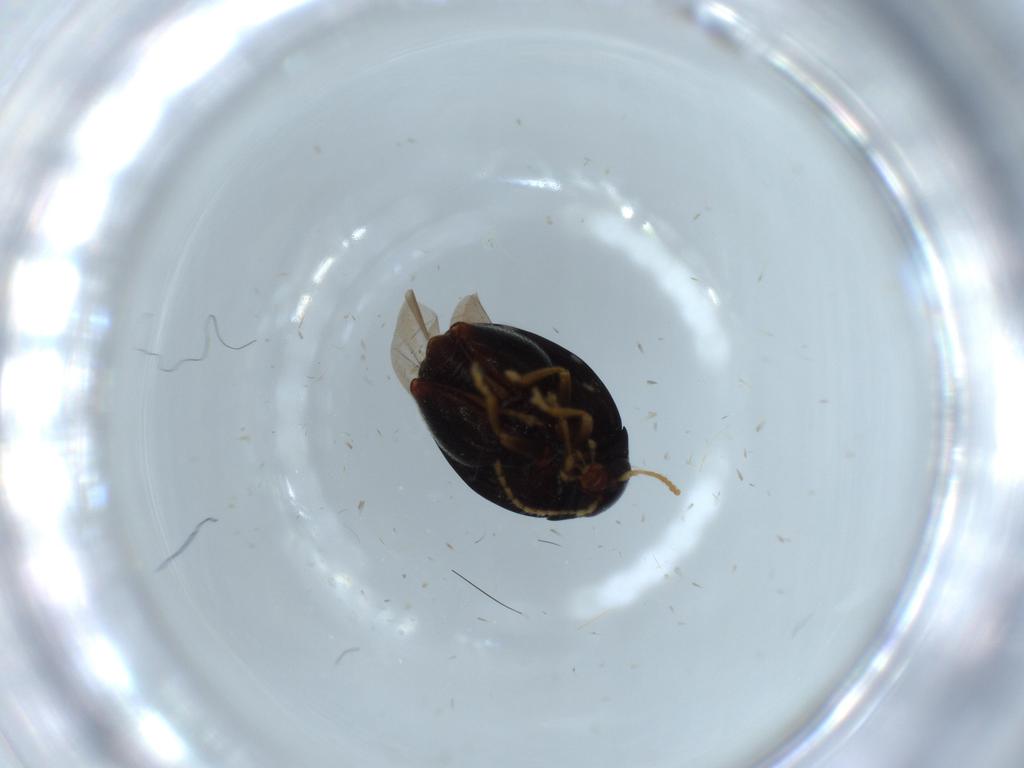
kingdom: Animalia
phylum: Arthropoda
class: Insecta
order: Coleoptera
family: Chrysomelidae
